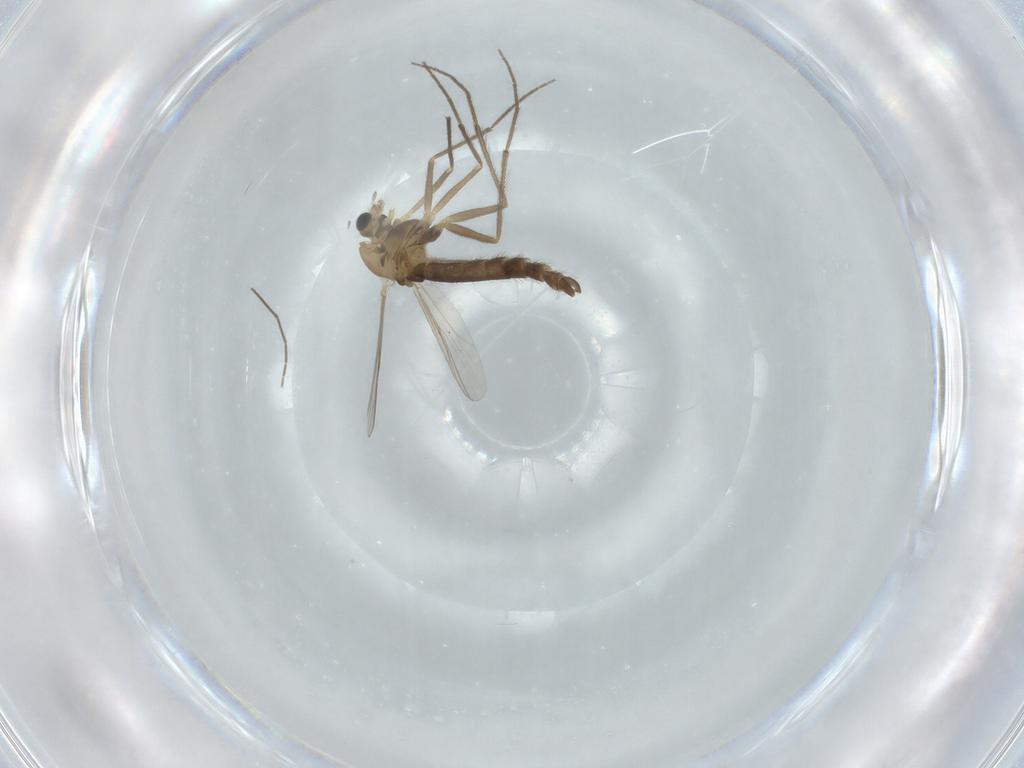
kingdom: Animalia
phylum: Arthropoda
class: Insecta
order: Diptera
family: Chironomidae
